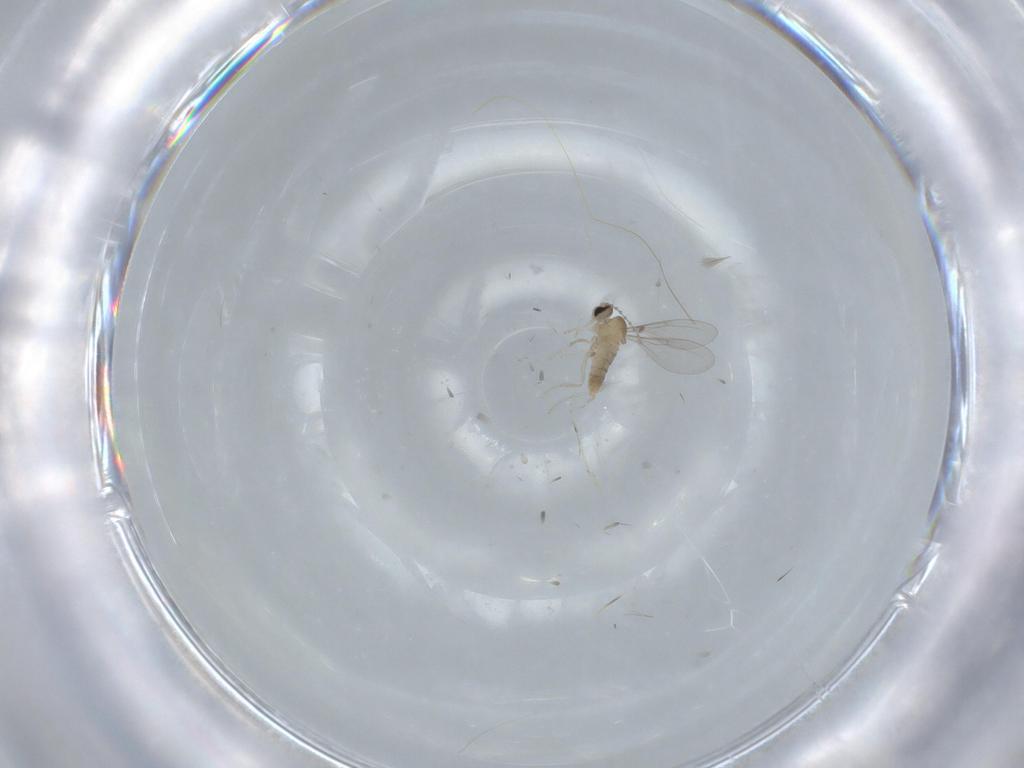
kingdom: Animalia
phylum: Arthropoda
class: Insecta
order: Diptera
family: Cecidomyiidae
